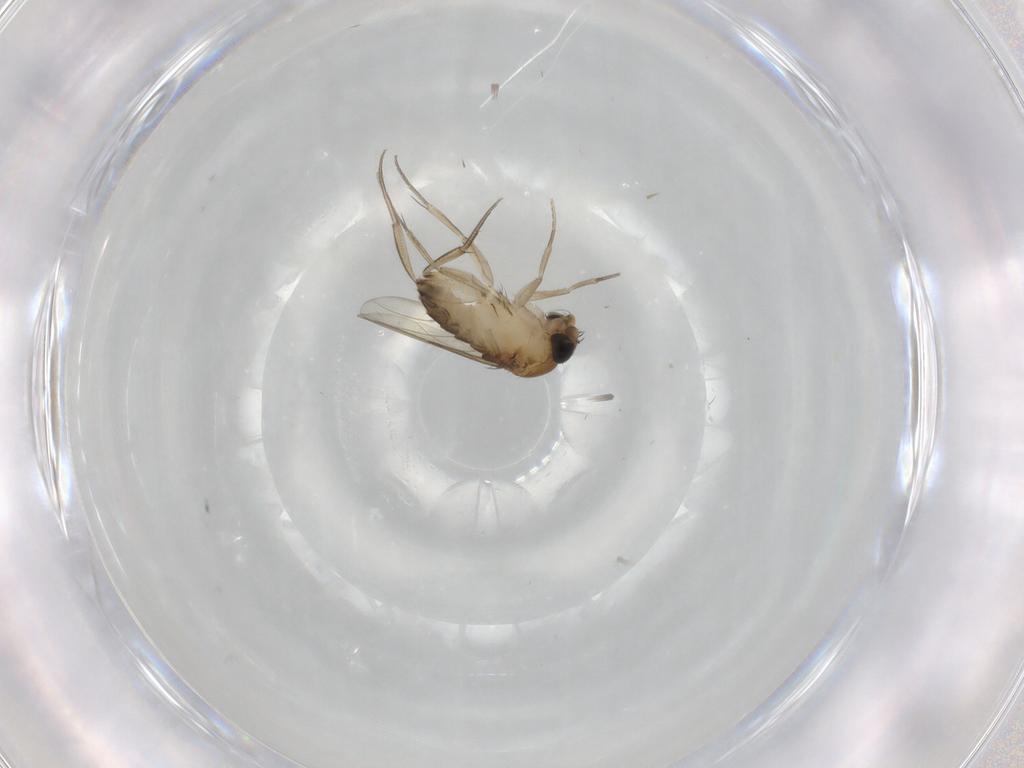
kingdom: Animalia
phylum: Arthropoda
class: Insecta
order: Diptera
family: Phoridae
